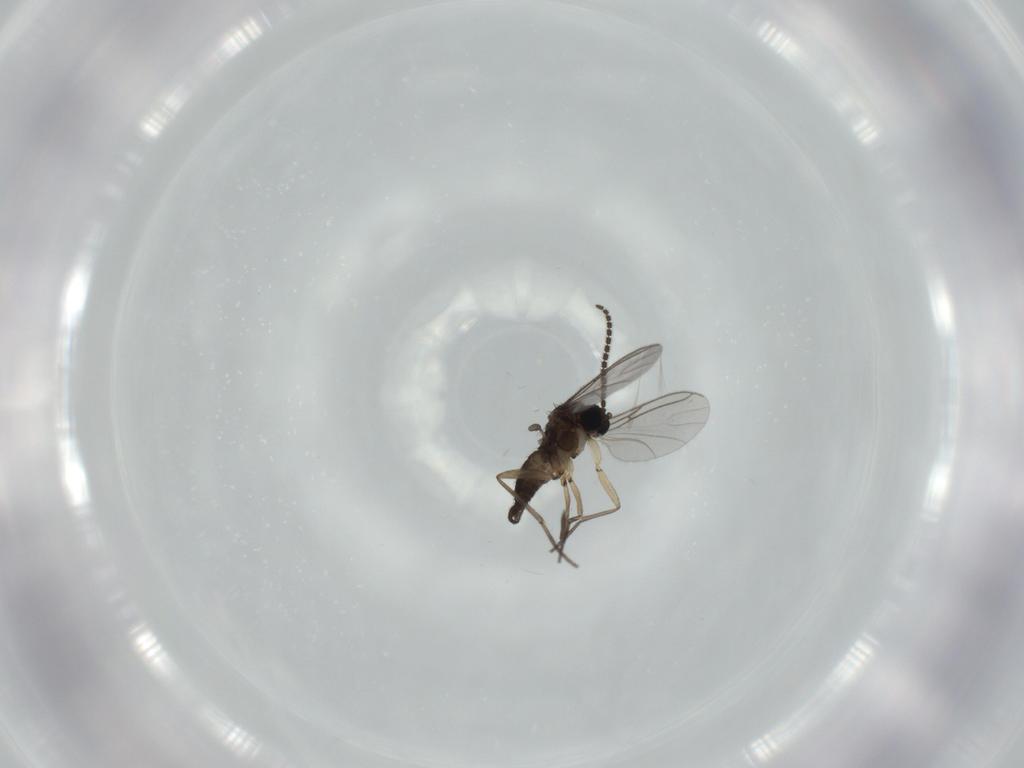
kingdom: Animalia
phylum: Arthropoda
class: Insecta
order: Diptera
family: Sciaridae
